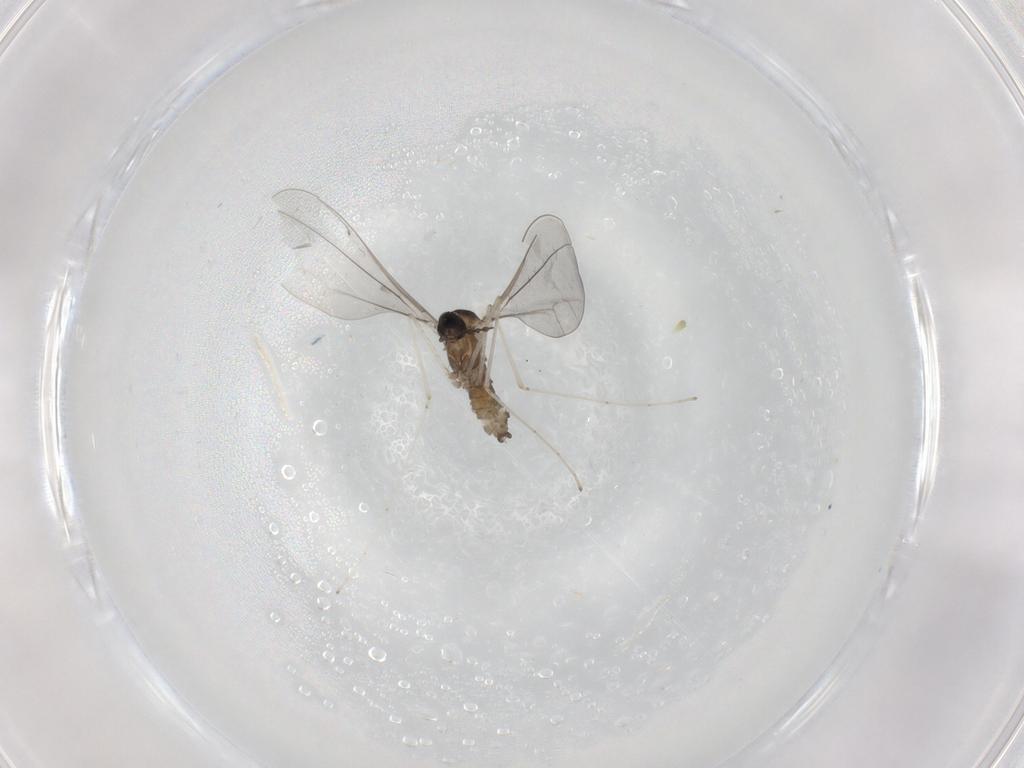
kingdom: Animalia
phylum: Arthropoda
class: Insecta
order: Diptera
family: Cecidomyiidae
